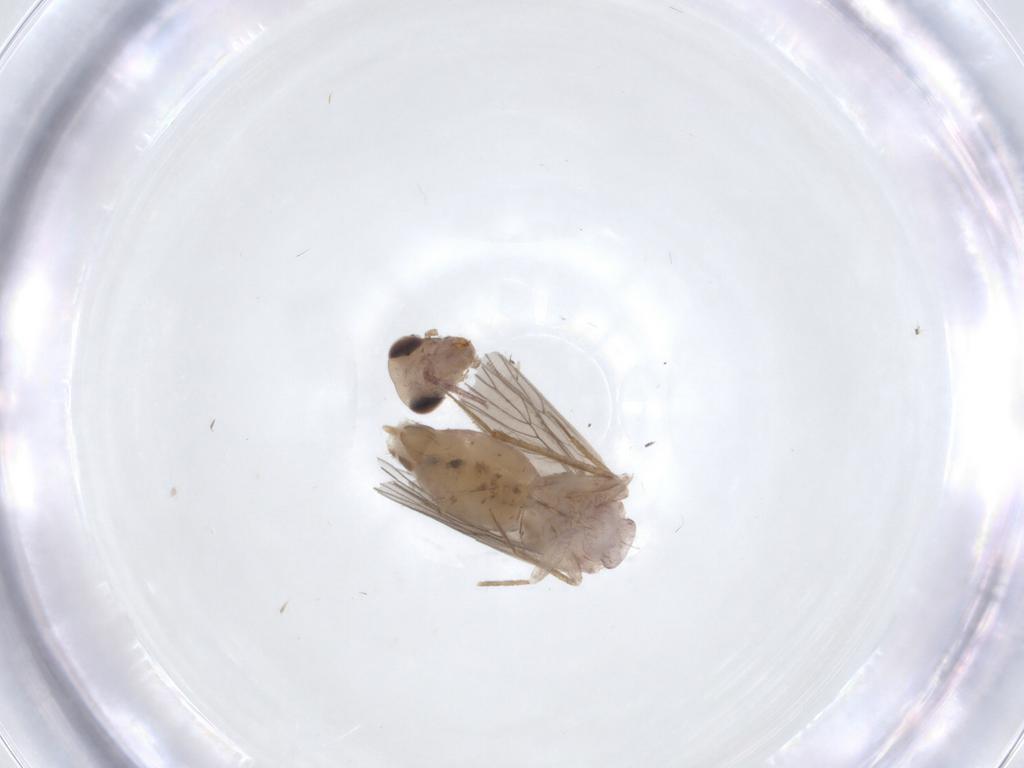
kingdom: Animalia
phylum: Arthropoda
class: Insecta
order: Psocodea
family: Lepidopsocidae
